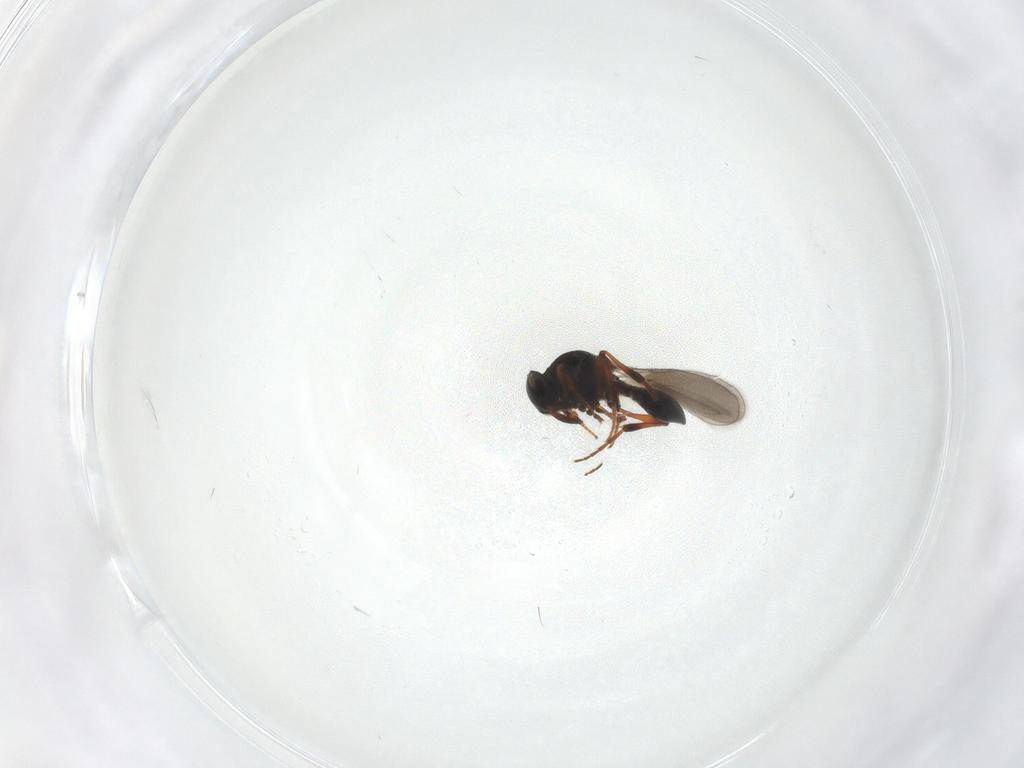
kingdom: Animalia
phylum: Arthropoda
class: Insecta
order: Hymenoptera
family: Platygastridae
